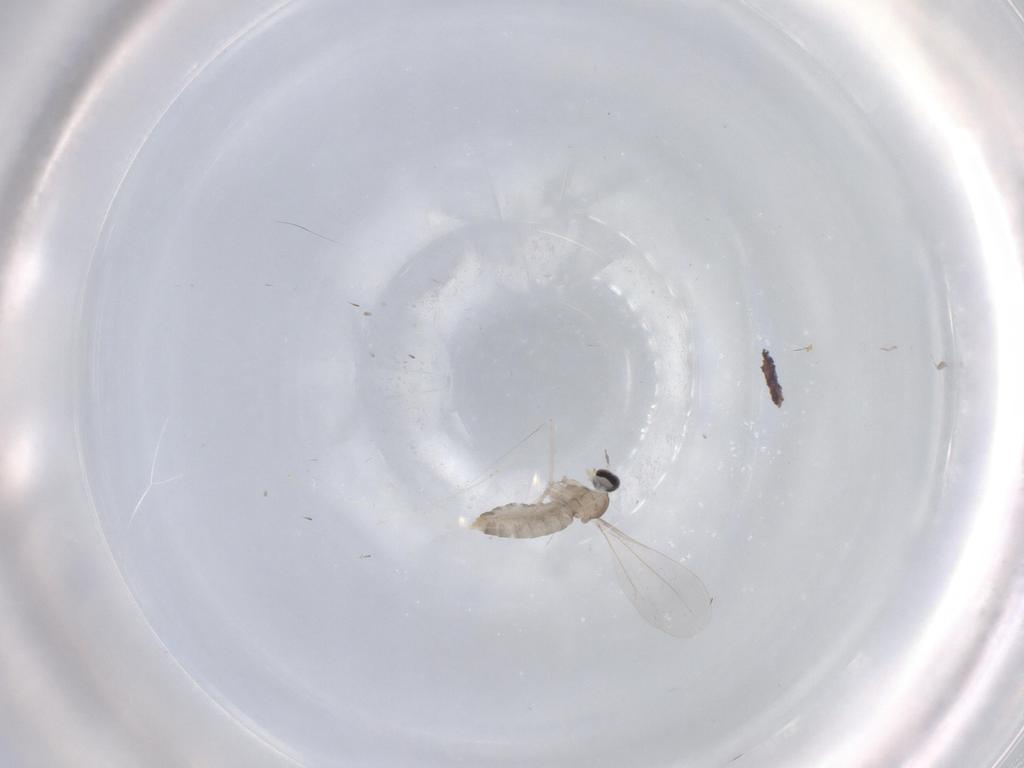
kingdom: Animalia
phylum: Arthropoda
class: Insecta
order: Diptera
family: Cecidomyiidae
